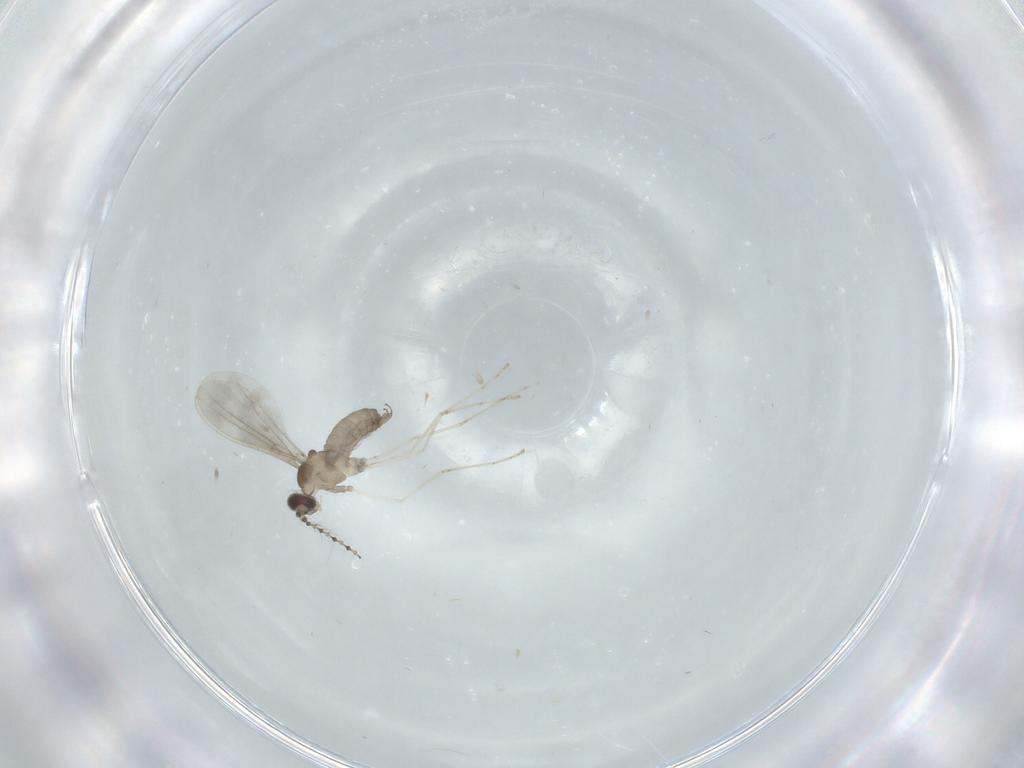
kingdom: Animalia
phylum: Arthropoda
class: Insecta
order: Diptera
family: Cecidomyiidae
